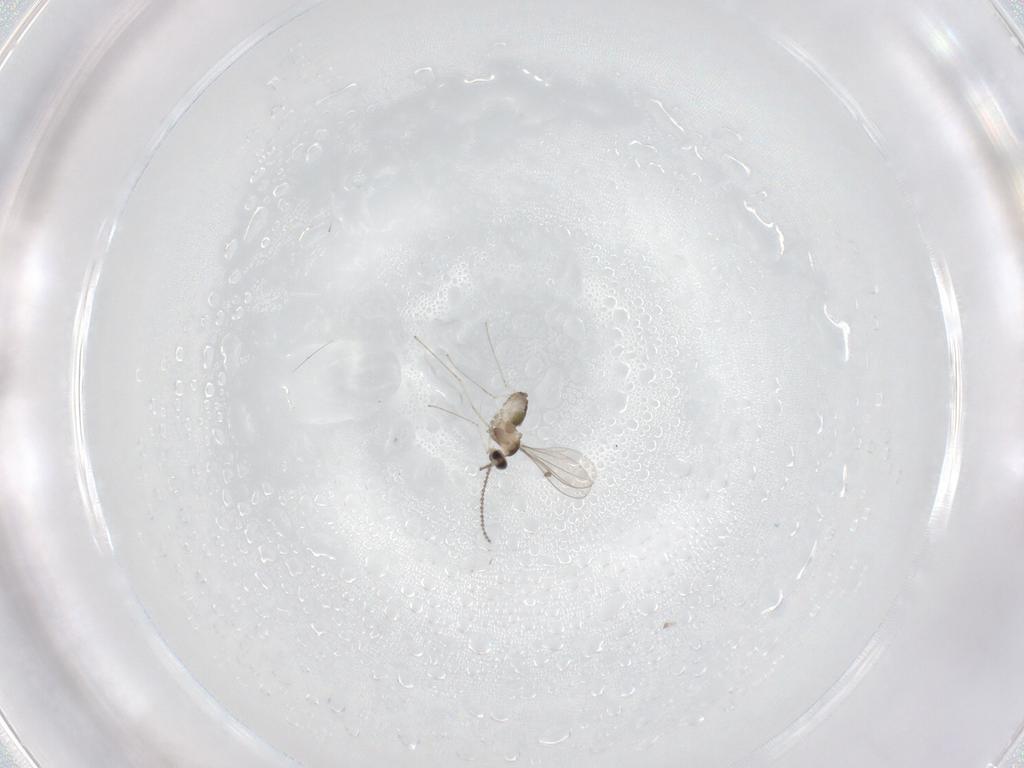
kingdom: Animalia
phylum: Arthropoda
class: Insecta
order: Diptera
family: Cecidomyiidae
